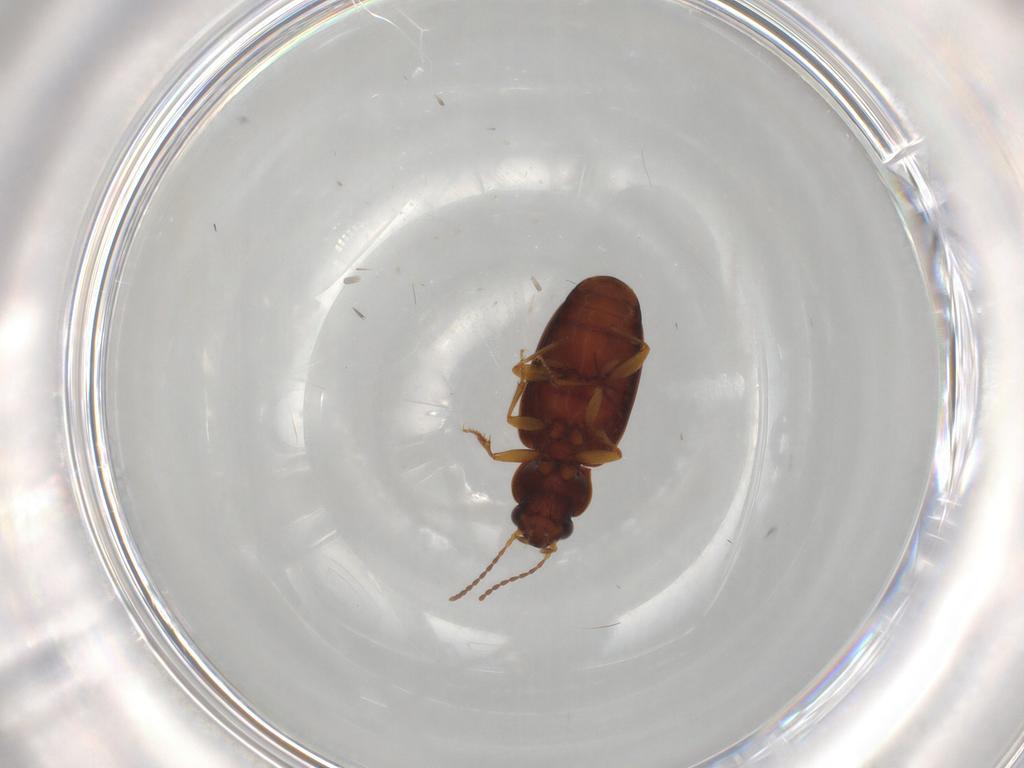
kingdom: Animalia
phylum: Arthropoda
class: Insecta
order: Coleoptera
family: Carabidae
